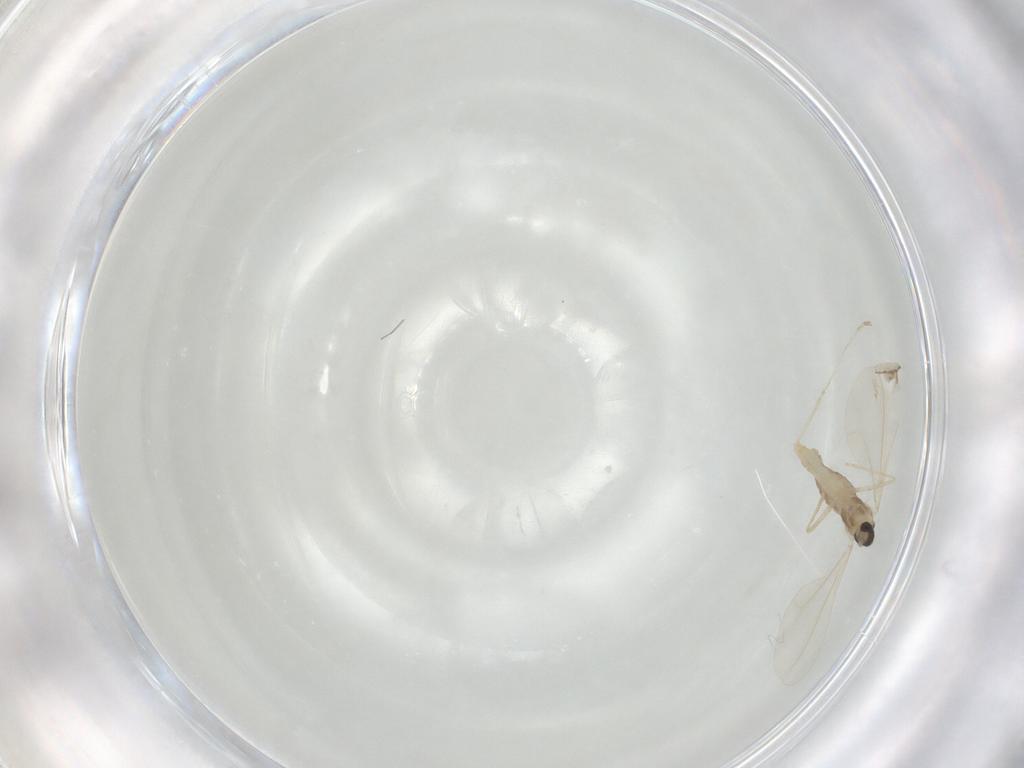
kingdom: Animalia
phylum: Arthropoda
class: Insecta
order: Diptera
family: Cecidomyiidae
